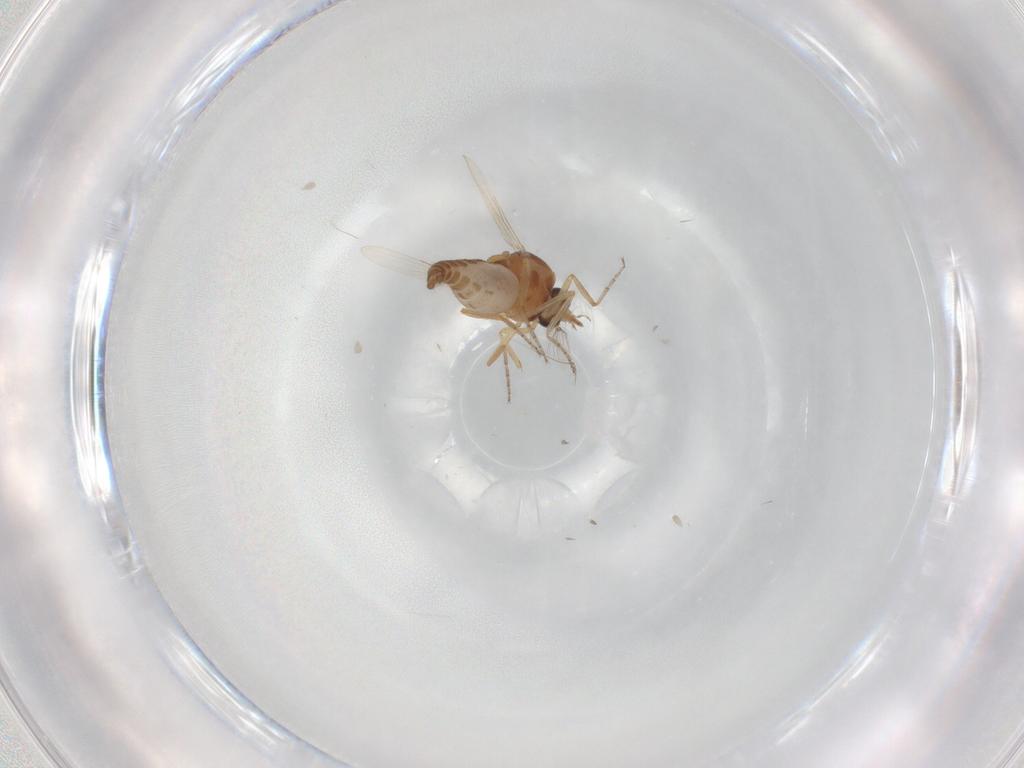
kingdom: Animalia
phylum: Arthropoda
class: Insecta
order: Diptera
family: Ceratopogonidae
